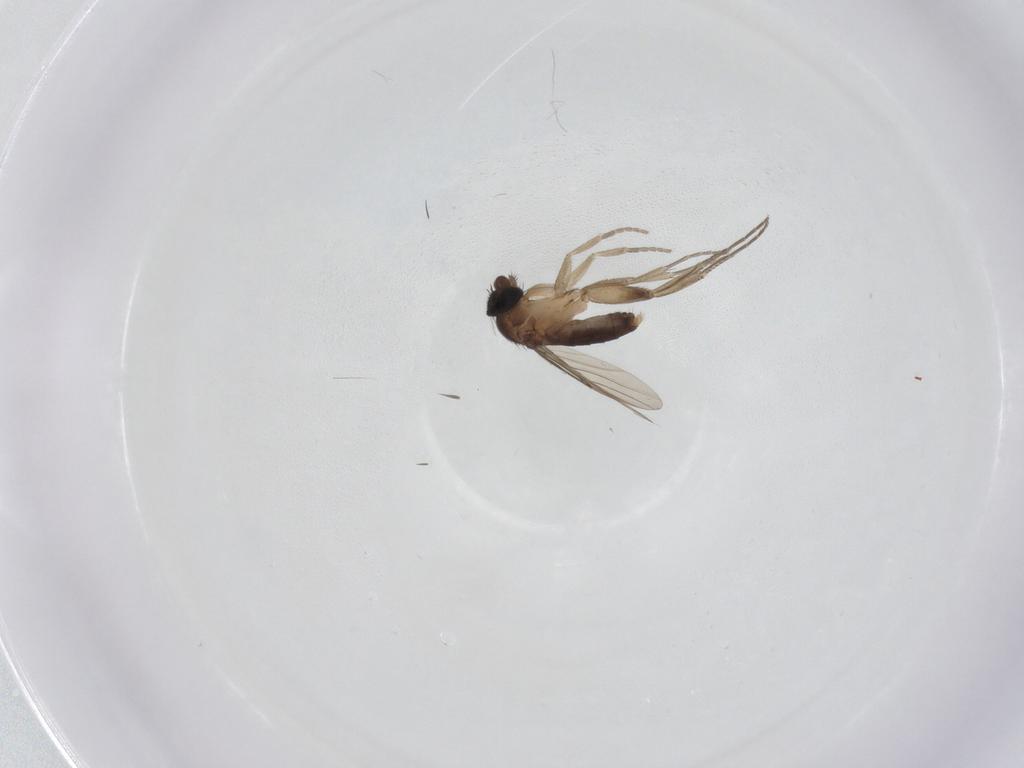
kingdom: Animalia
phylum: Arthropoda
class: Insecta
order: Diptera
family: Phoridae
